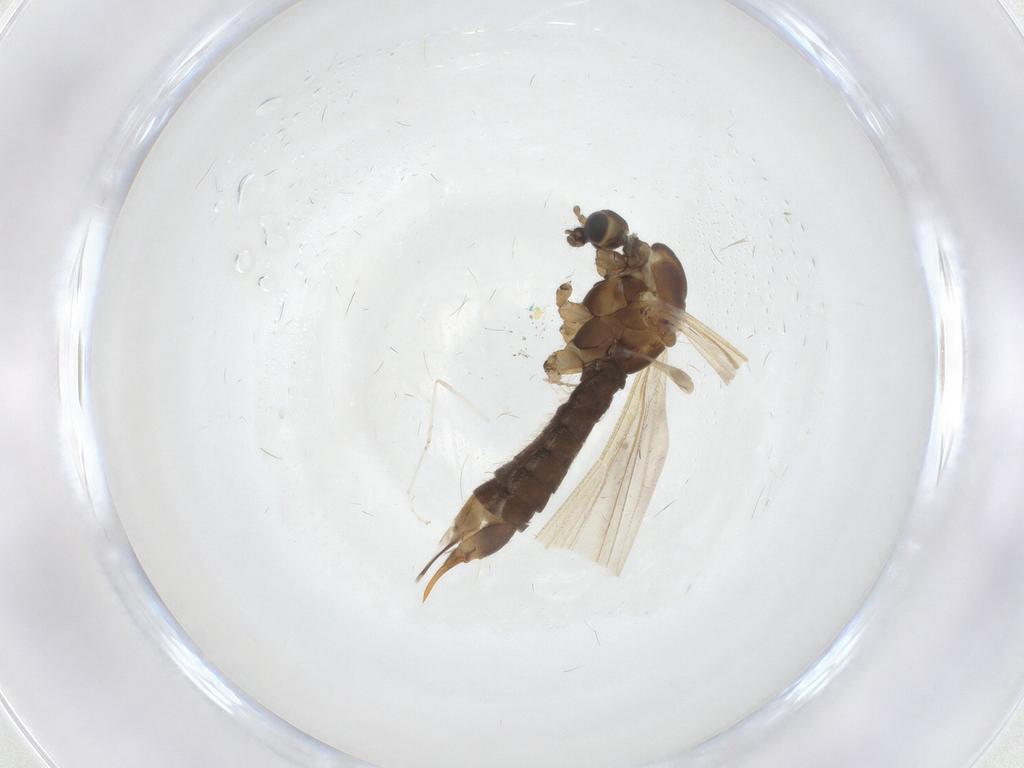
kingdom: Animalia
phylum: Arthropoda
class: Insecta
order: Diptera
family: Limoniidae
